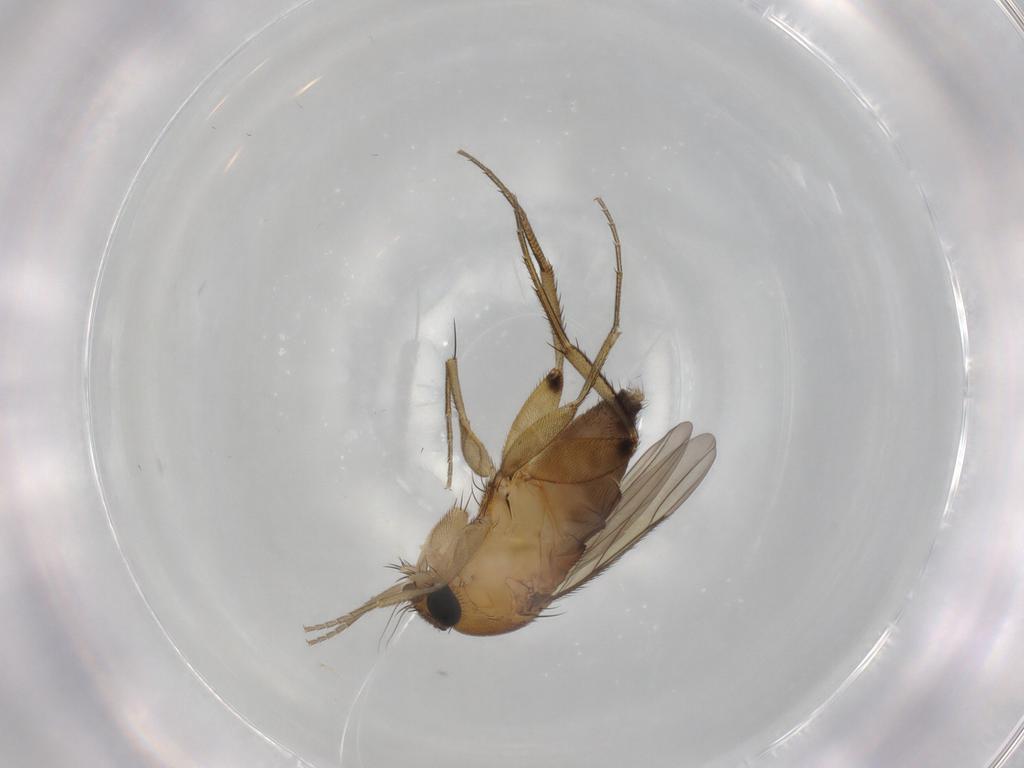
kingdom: Animalia
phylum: Arthropoda
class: Insecta
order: Diptera
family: Phoridae
